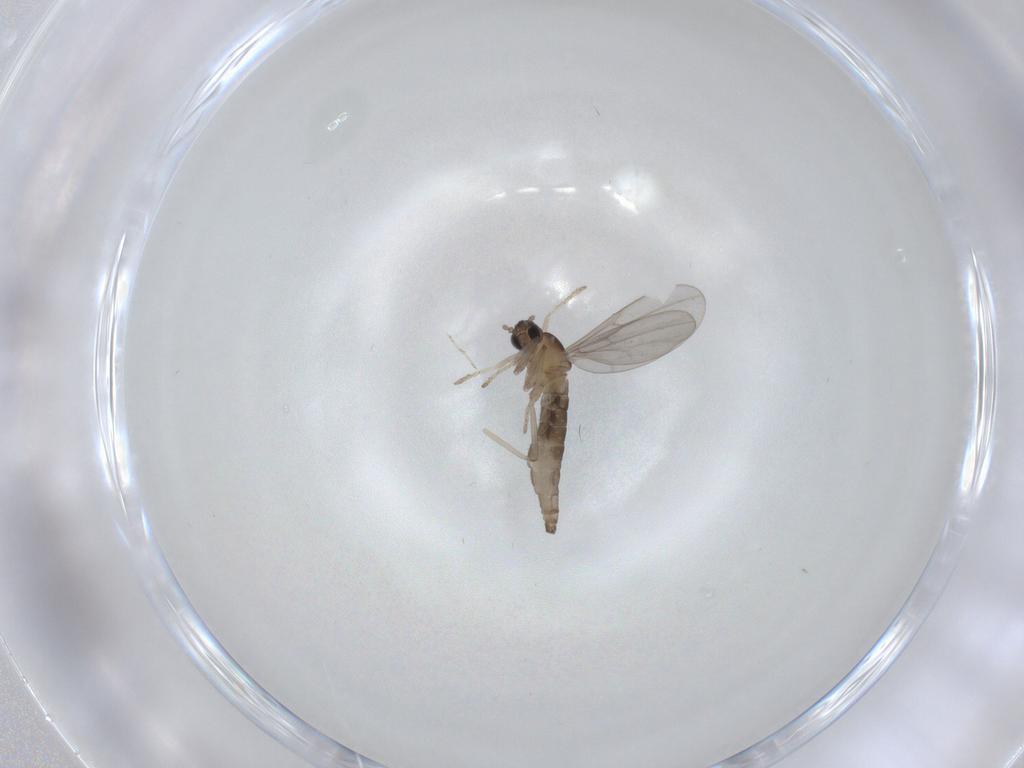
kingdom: Animalia
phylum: Arthropoda
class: Insecta
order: Diptera
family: Cecidomyiidae
